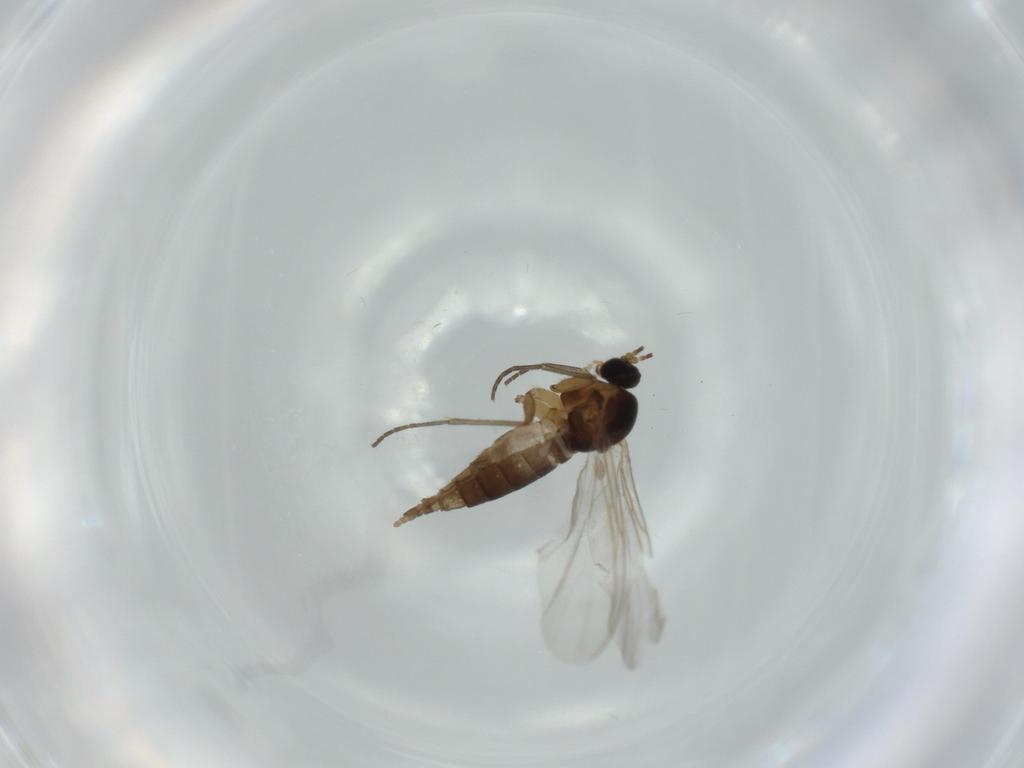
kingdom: Animalia
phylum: Arthropoda
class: Insecta
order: Diptera
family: Chironomidae
